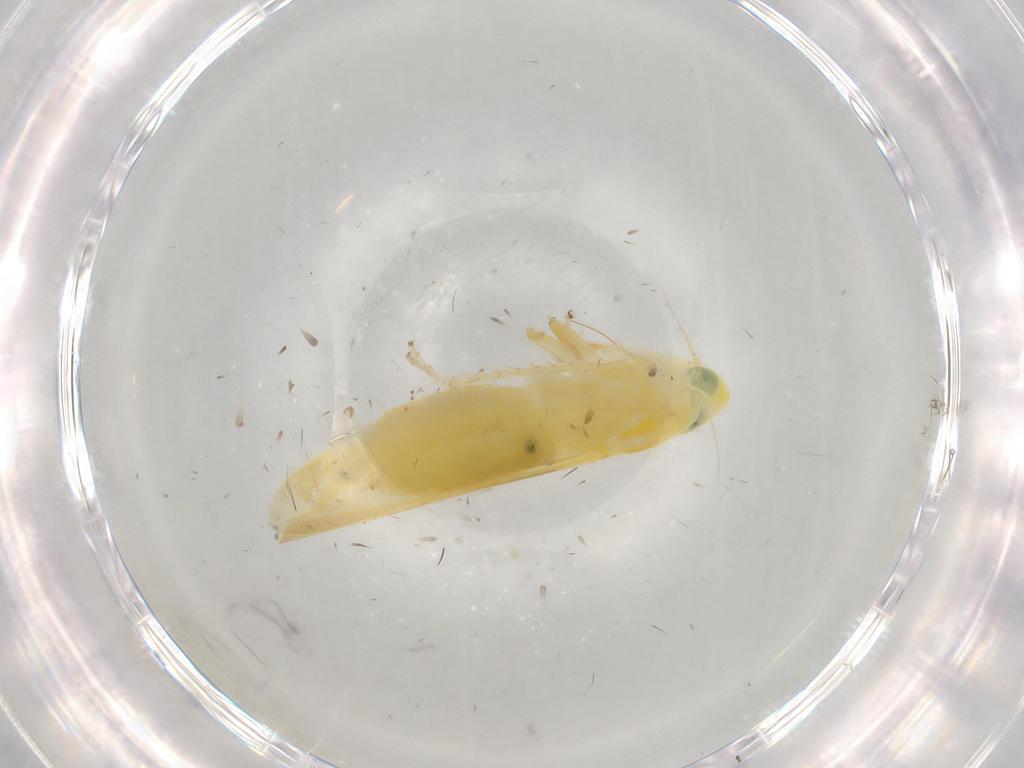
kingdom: Animalia
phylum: Arthropoda
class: Insecta
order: Hemiptera
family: Cicadellidae
